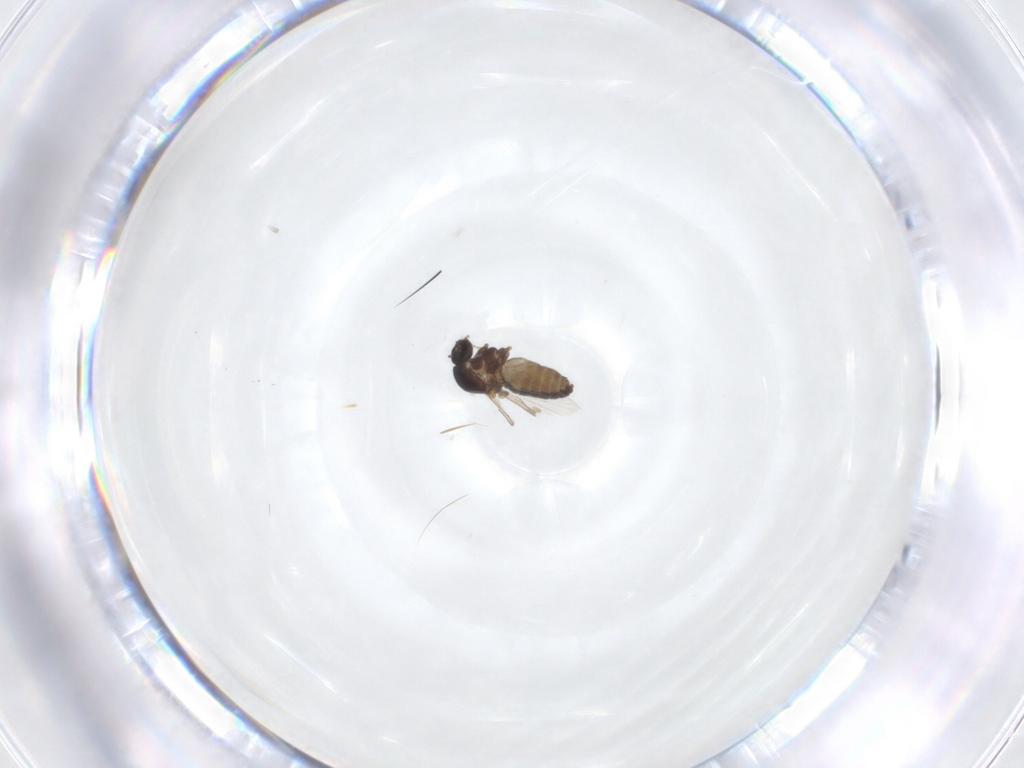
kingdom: Animalia
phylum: Arthropoda
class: Insecta
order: Diptera
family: Ceratopogonidae
